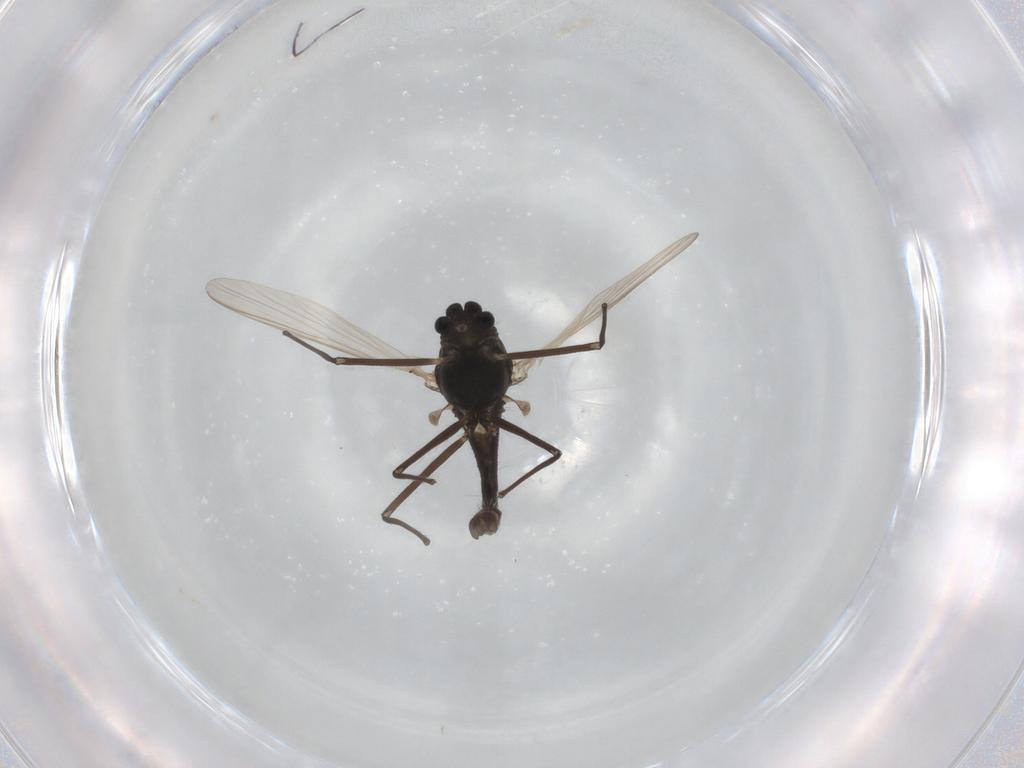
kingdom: Animalia
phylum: Arthropoda
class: Insecta
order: Diptera
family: Chironomidae
